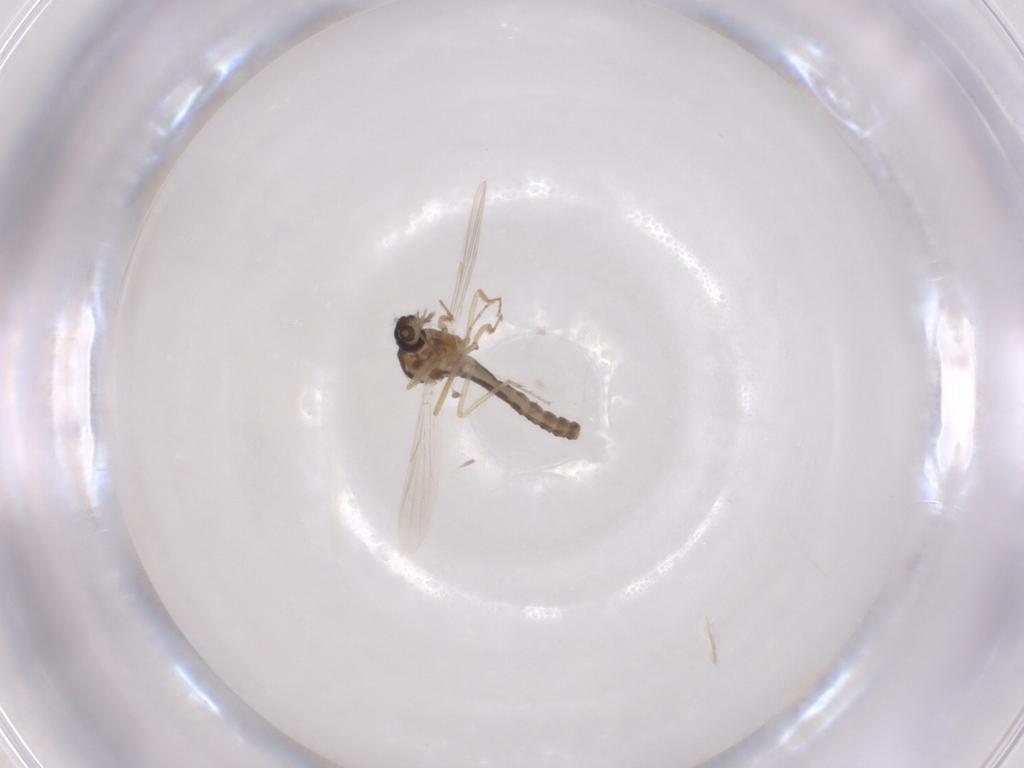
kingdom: Animalia
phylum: Arthropoda
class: Insecta
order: Diptera
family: Ceratopogonidae
